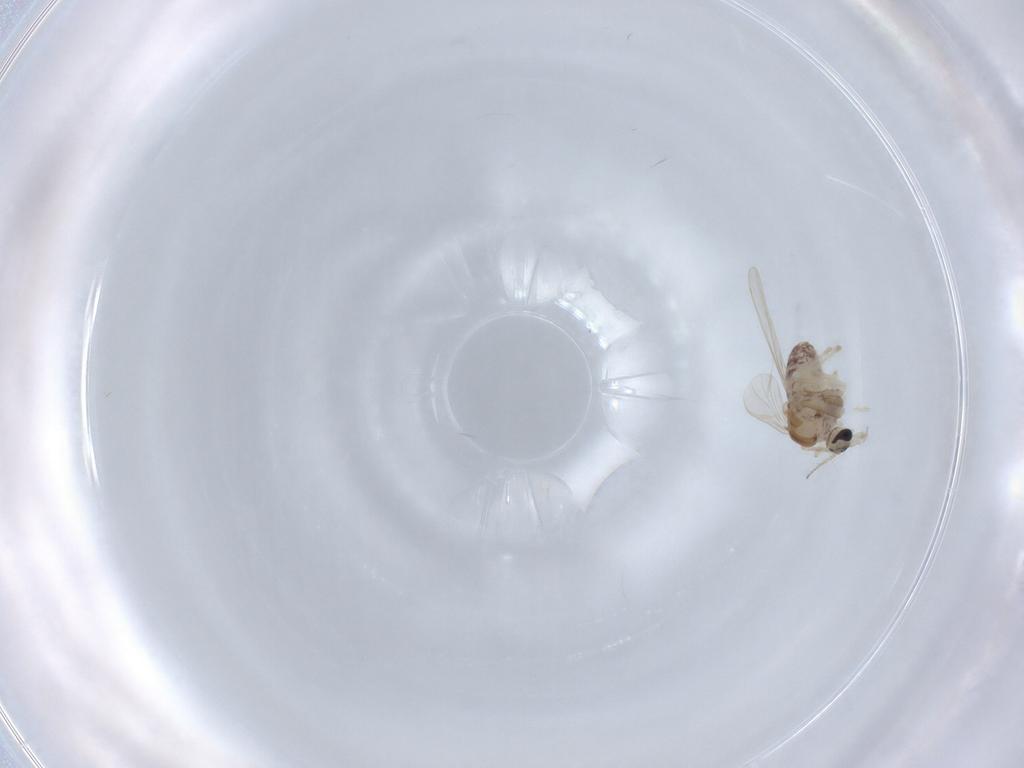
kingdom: Animalia
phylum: Arthropoda
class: Insecta
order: Diptera
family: Chironomidae
